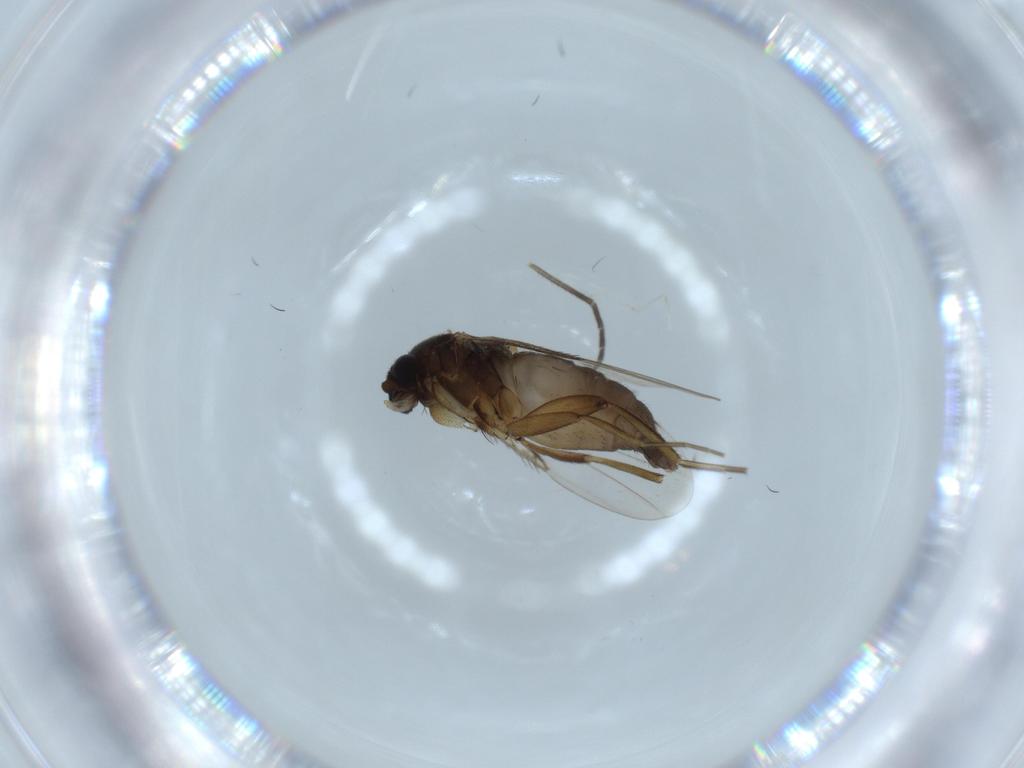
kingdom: Animalia
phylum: Arthropoda
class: Insecta
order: Diptera
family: Phoridae
